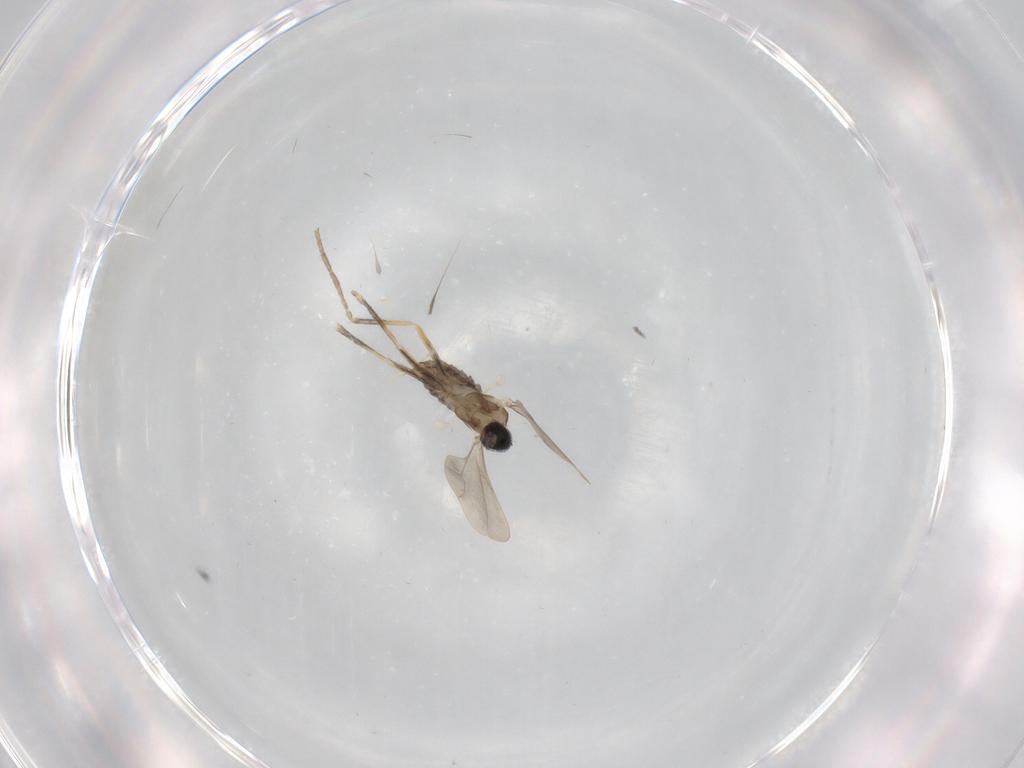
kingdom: Animalia
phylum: Arthropoda
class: Insecta
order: Diptera
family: Cecidomyiidae
